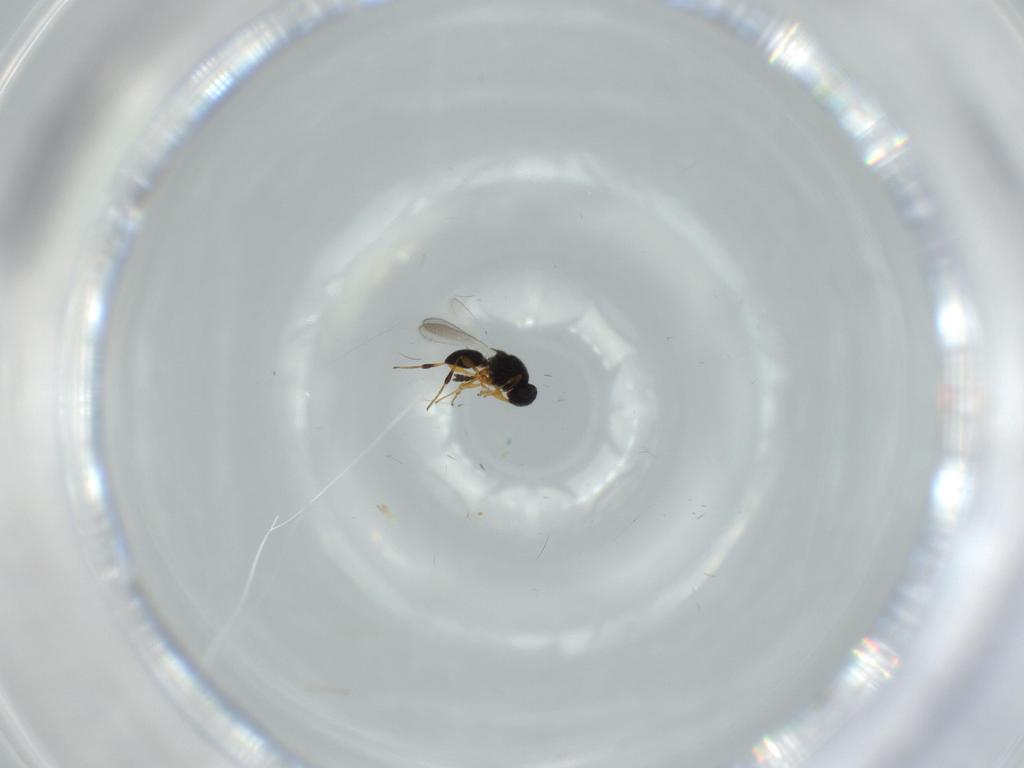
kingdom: Animalia
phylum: Arthropoda
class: Insecta
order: Hymenoptera
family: Platygastridae
